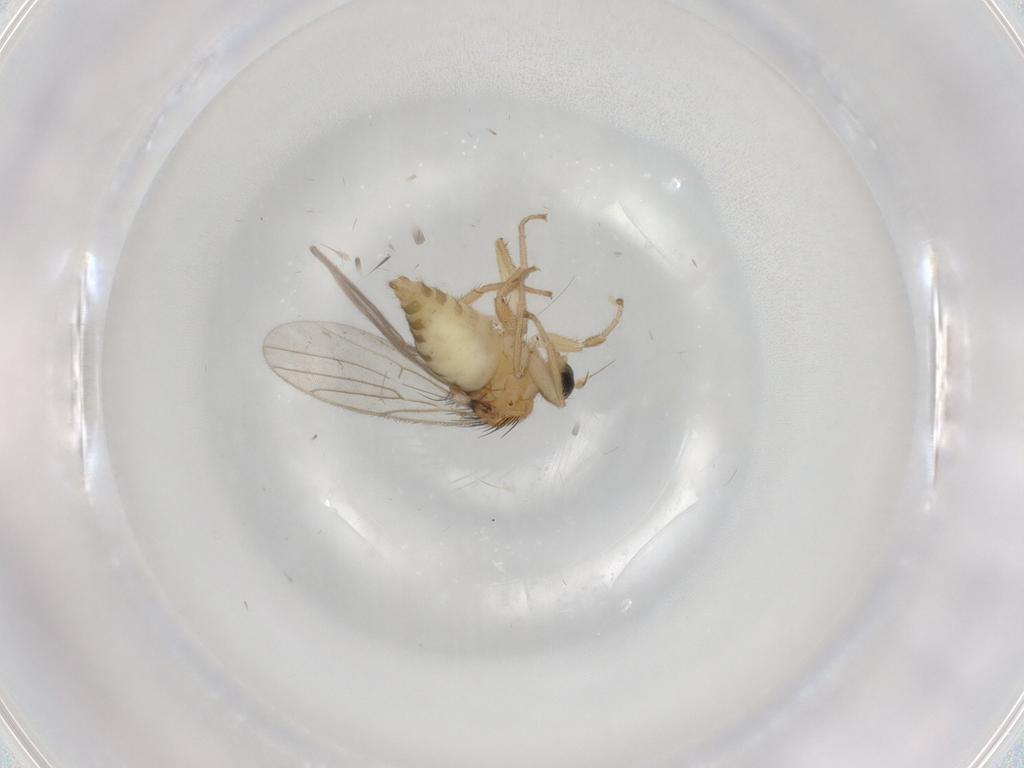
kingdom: Animalia
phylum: Arthropoda
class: Insecta
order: Diptera
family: Hybotidae
